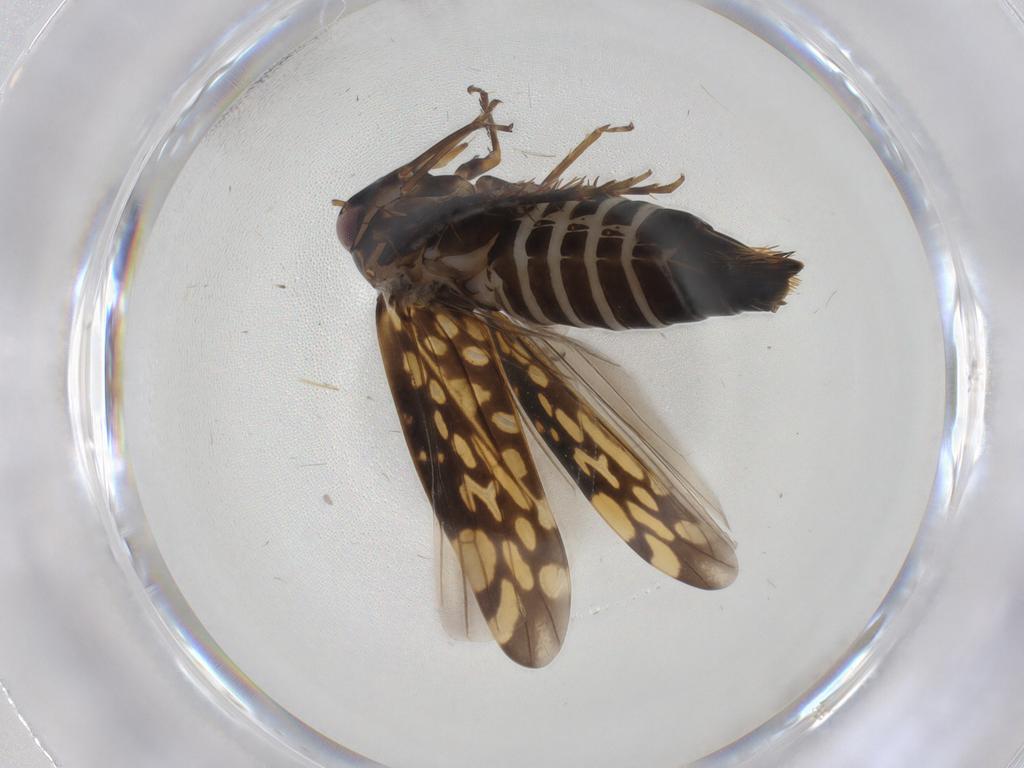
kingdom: Animalia
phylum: Arthropoda
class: Insecta
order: Hemiptera
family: Cicadellidae
